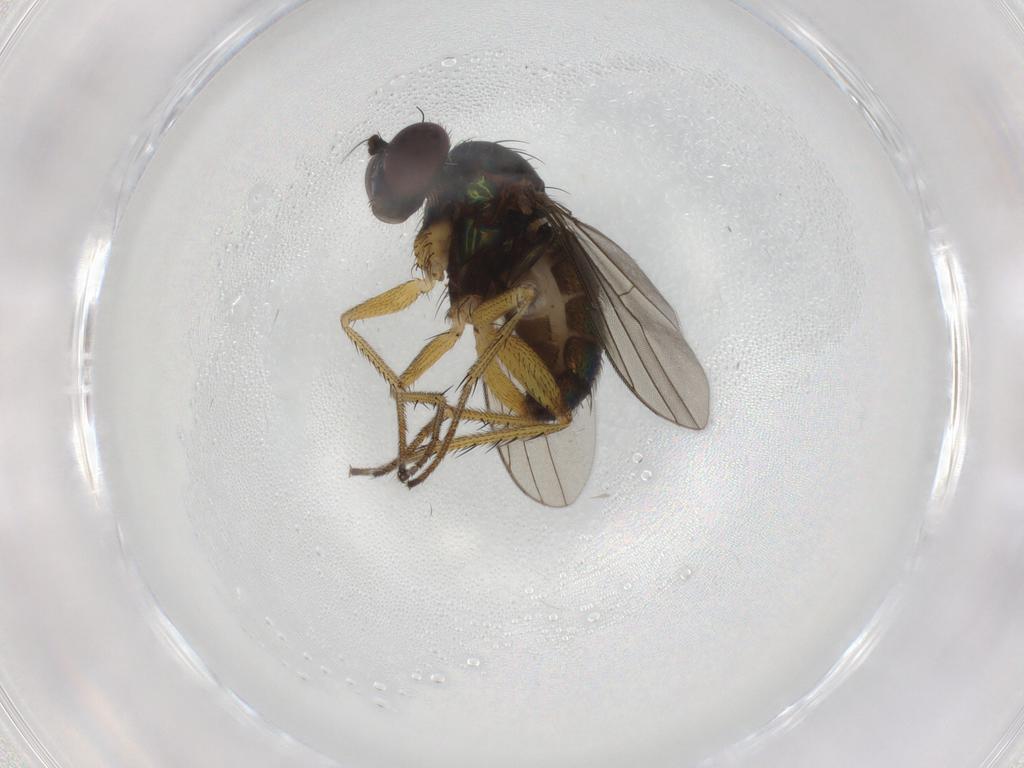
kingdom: Animalia
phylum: Arthropoda
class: Insecta
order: Diptera
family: Dolichopodidae
